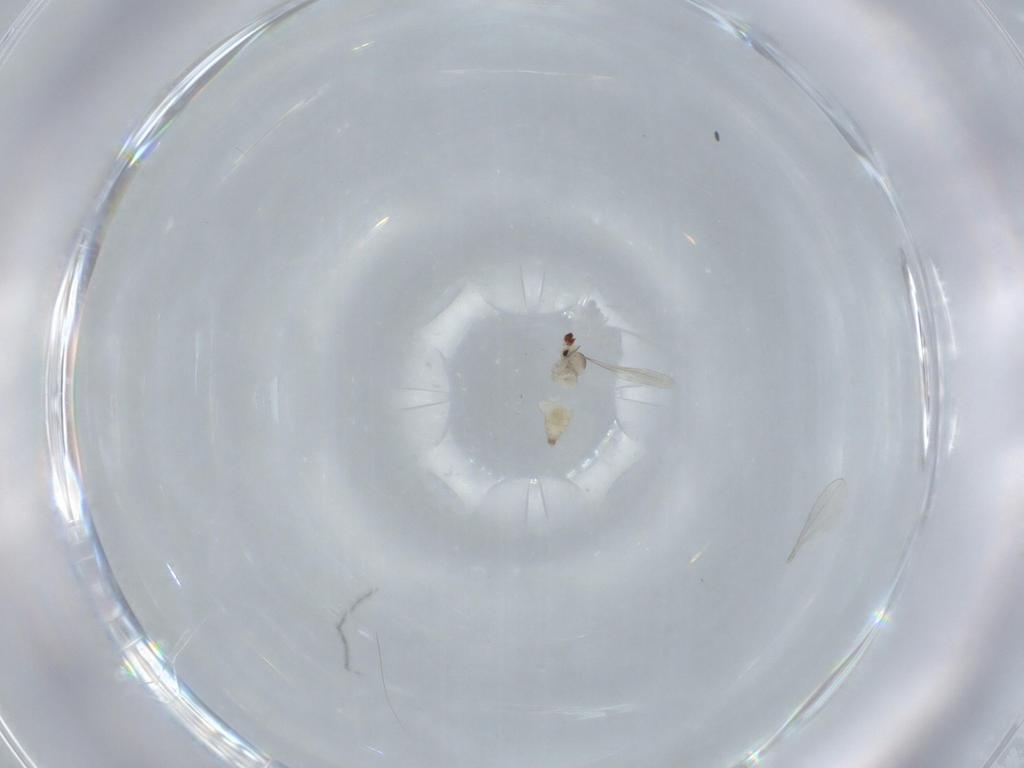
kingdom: Animalia
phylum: Arthropoda
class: Insecta
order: Diptera
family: Cecidomyiidae
